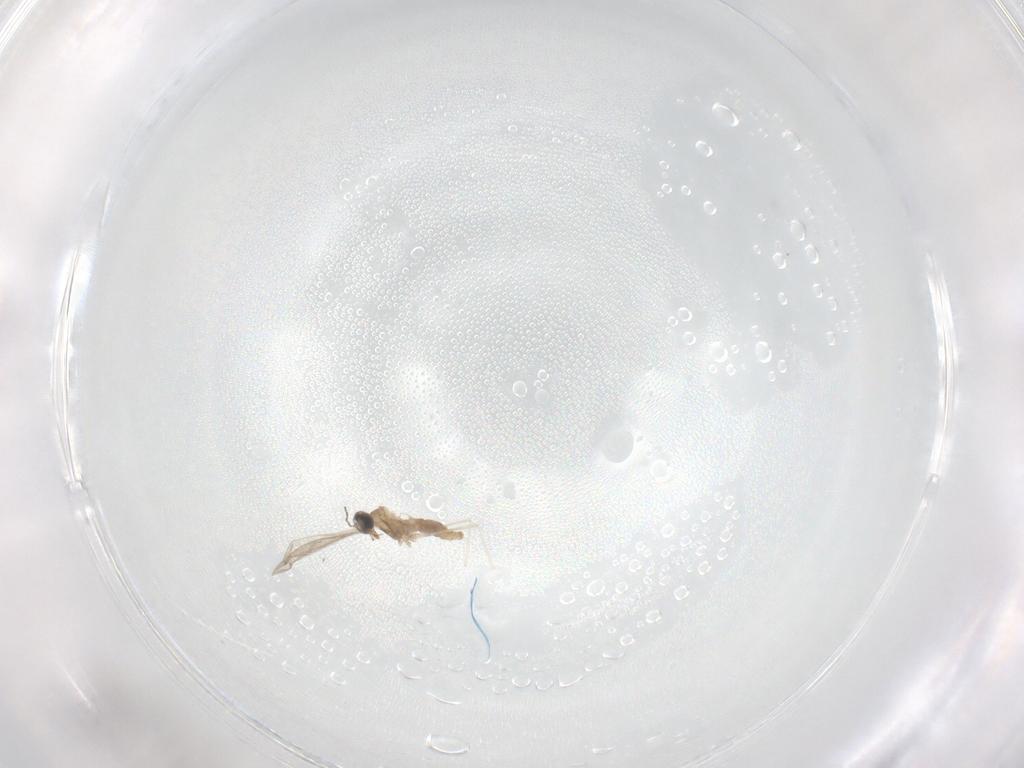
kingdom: Animalia
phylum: Arthropoda
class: Insecta
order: Diptera
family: Cecidomyiidae
